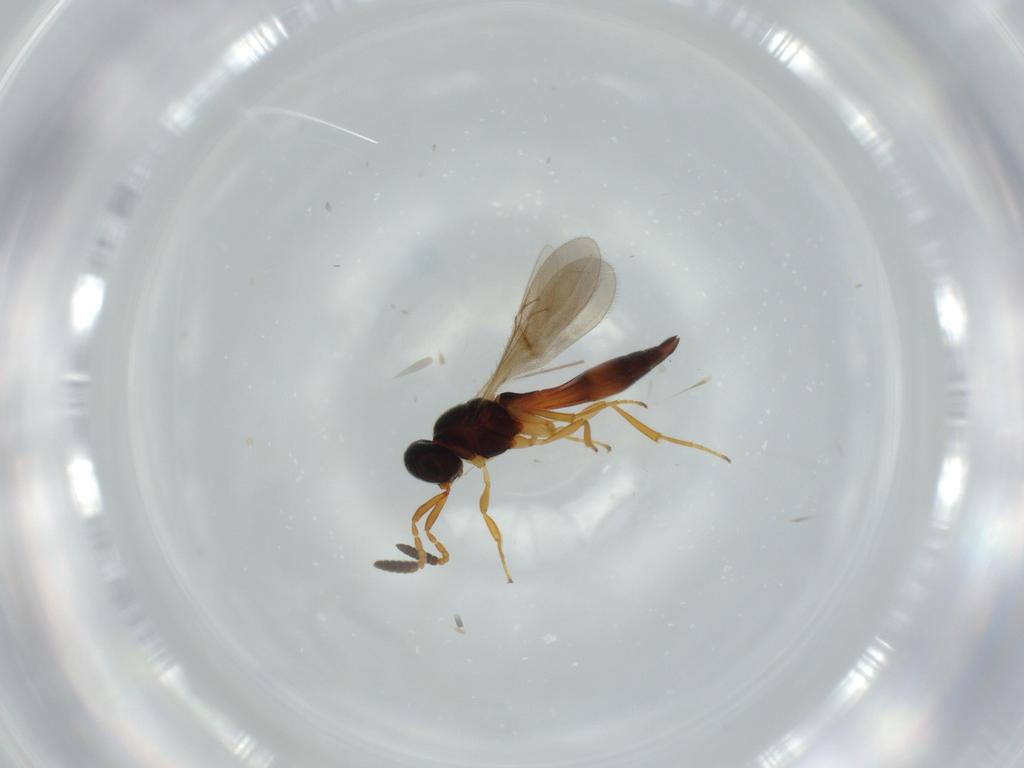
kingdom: Animalia
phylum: Arthropoda
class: Insecta
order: Hymenoptera
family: Scelionidae
